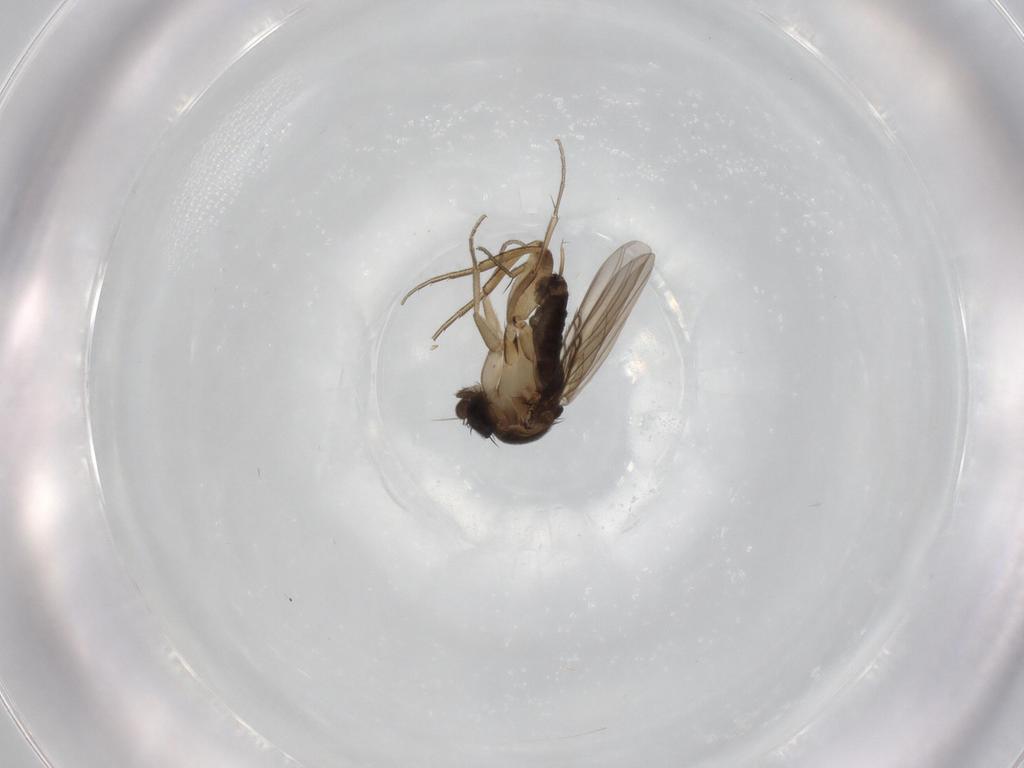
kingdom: Animalia
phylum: Arthropoda
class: Insecta
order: Diptera
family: Phoridae
